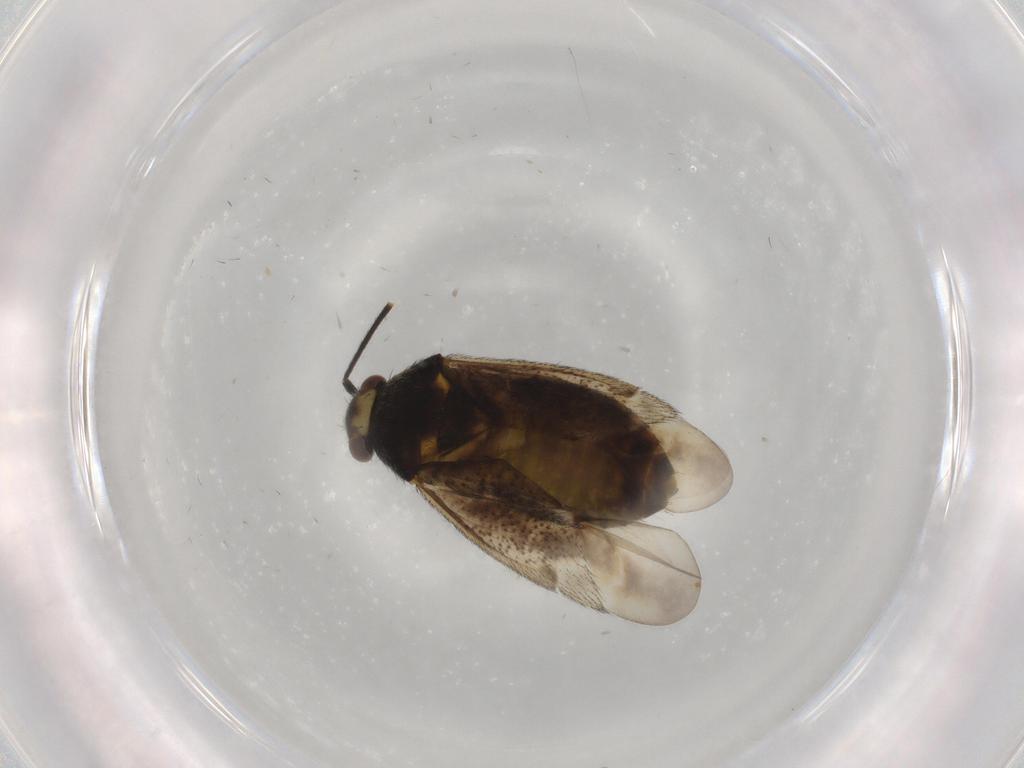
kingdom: Animalia
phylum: Arthropoda
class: Insecta
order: Hemiptera
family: Miridae
